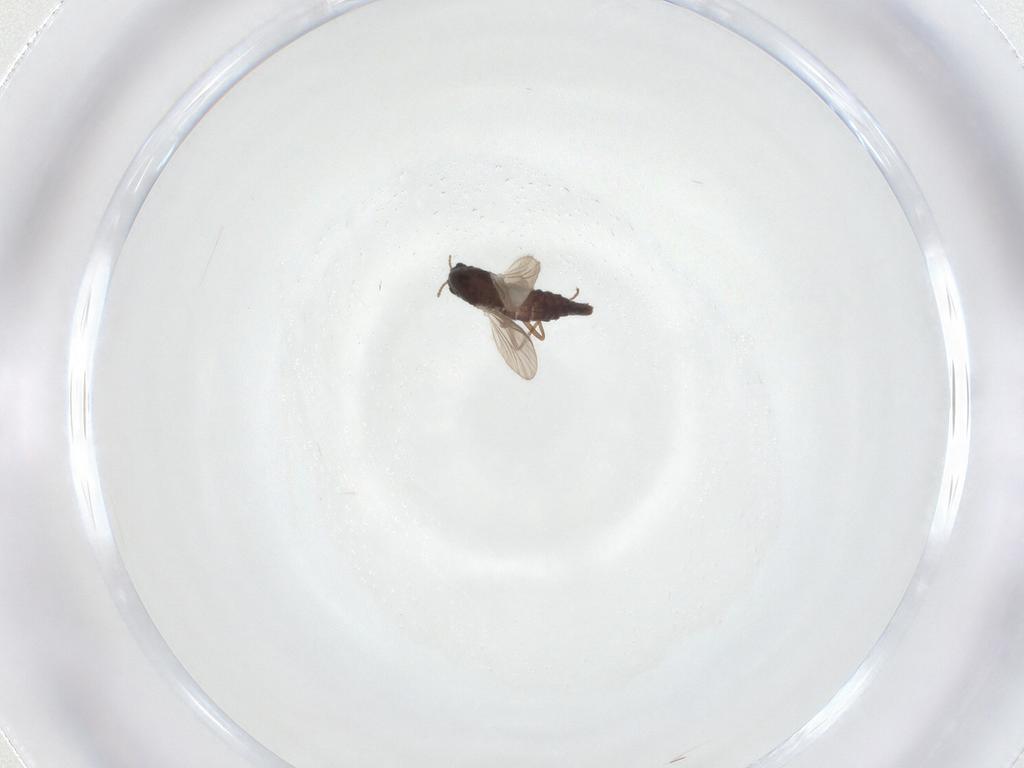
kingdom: Animalia
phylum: Arthropoda
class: Insecta
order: Diptera
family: Chironomidae
